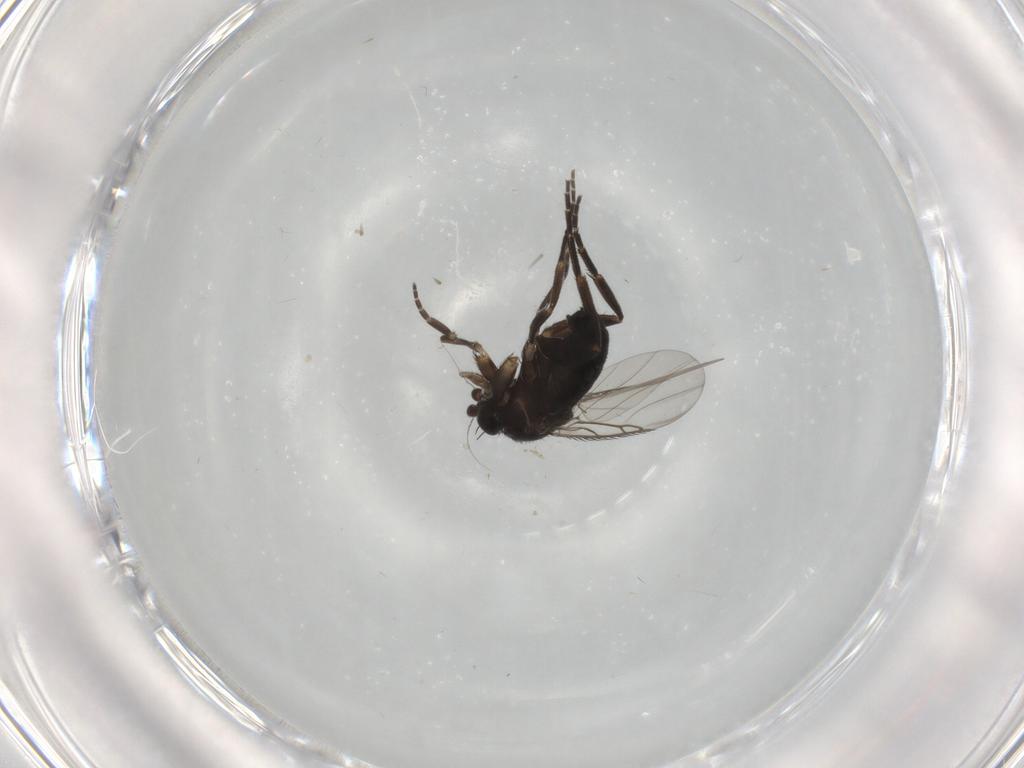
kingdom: Animalia
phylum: Arthropoda
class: Insecta
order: Diptera
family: Phoridae
